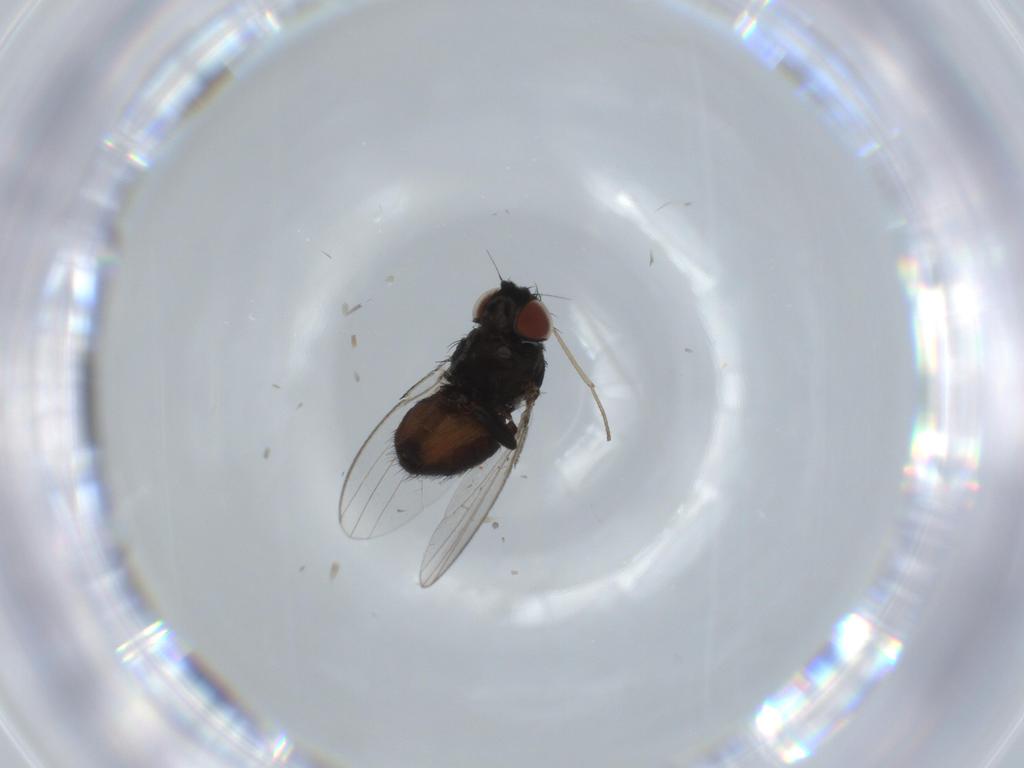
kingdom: Animalia
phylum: Arthropoda
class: Insecta
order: Diptera
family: Milichiidae
